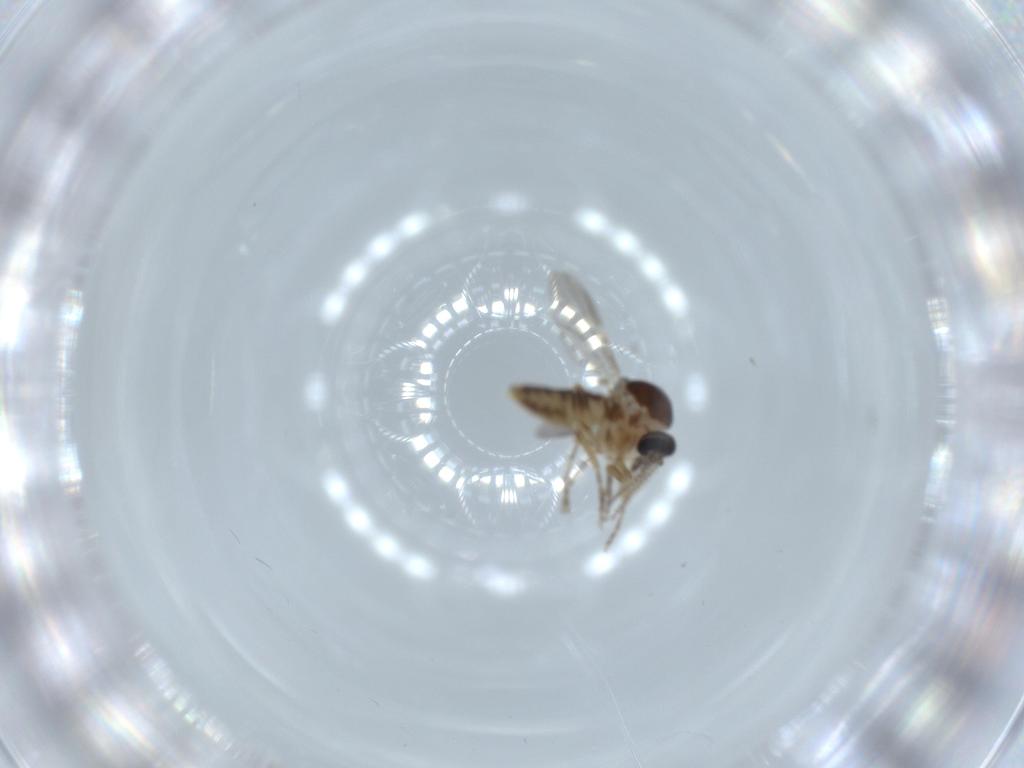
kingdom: Animalia
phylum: Arthropoda
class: Insecta
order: Diptera
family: Ceratopogonidae
